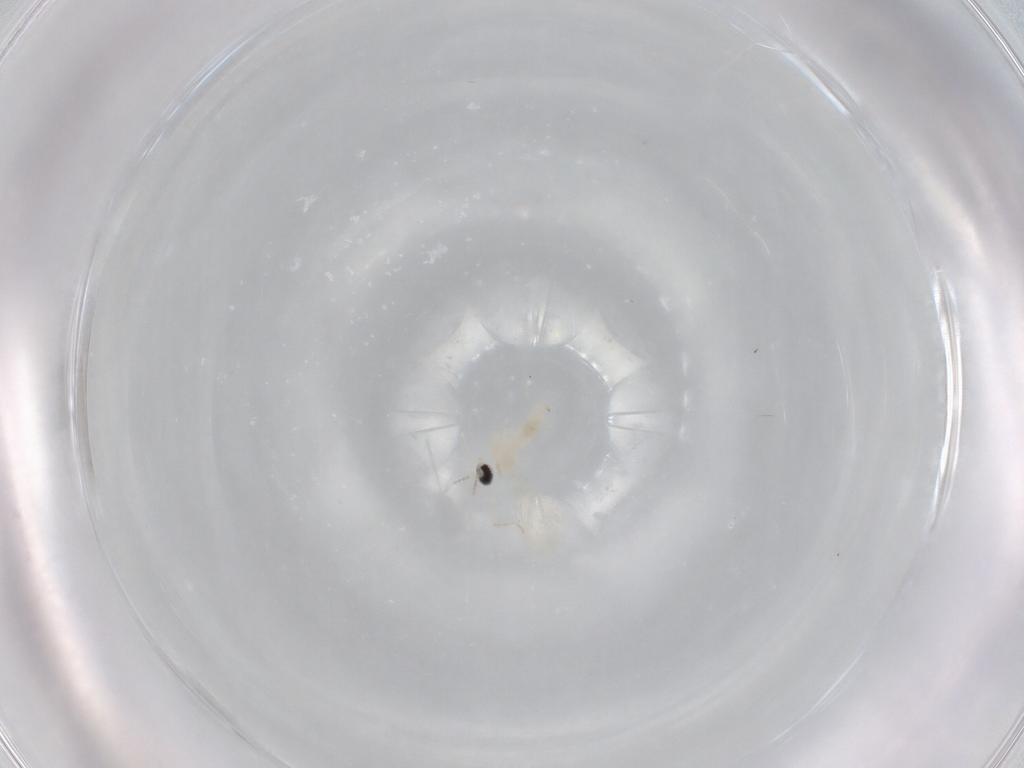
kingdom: Animalia
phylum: Arthropoda
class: Insecta
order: Diptera
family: Cecidomyiidae
